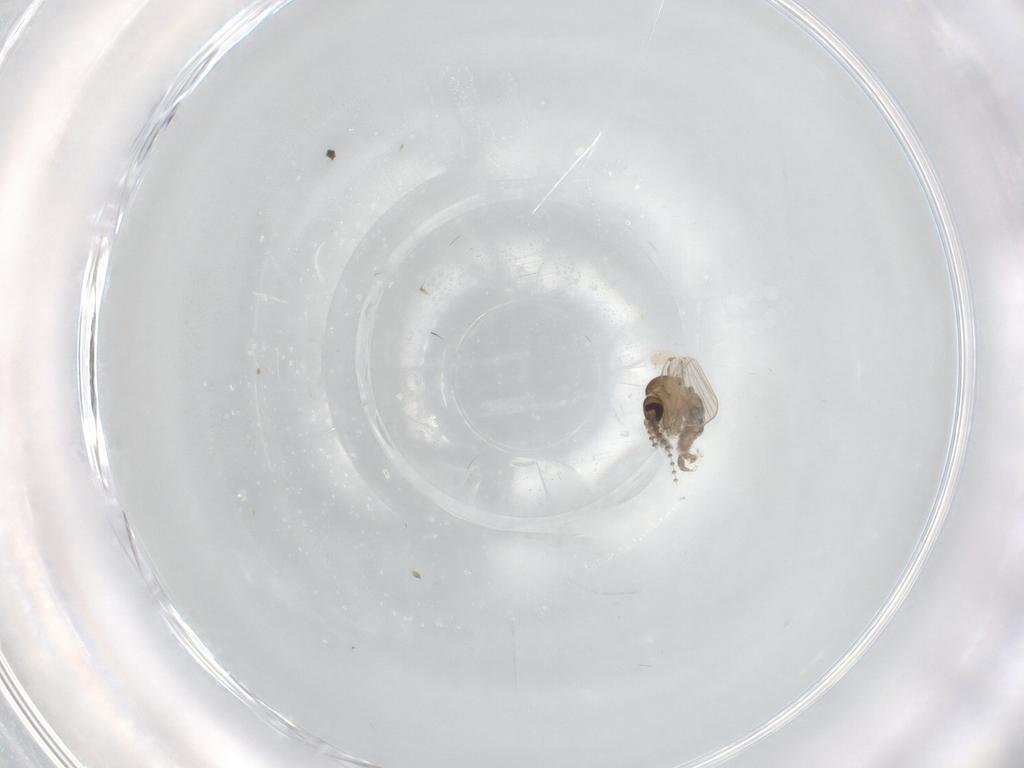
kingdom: Animalia
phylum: Arthropoda
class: Insecta
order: Diptera
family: Psychodidae
